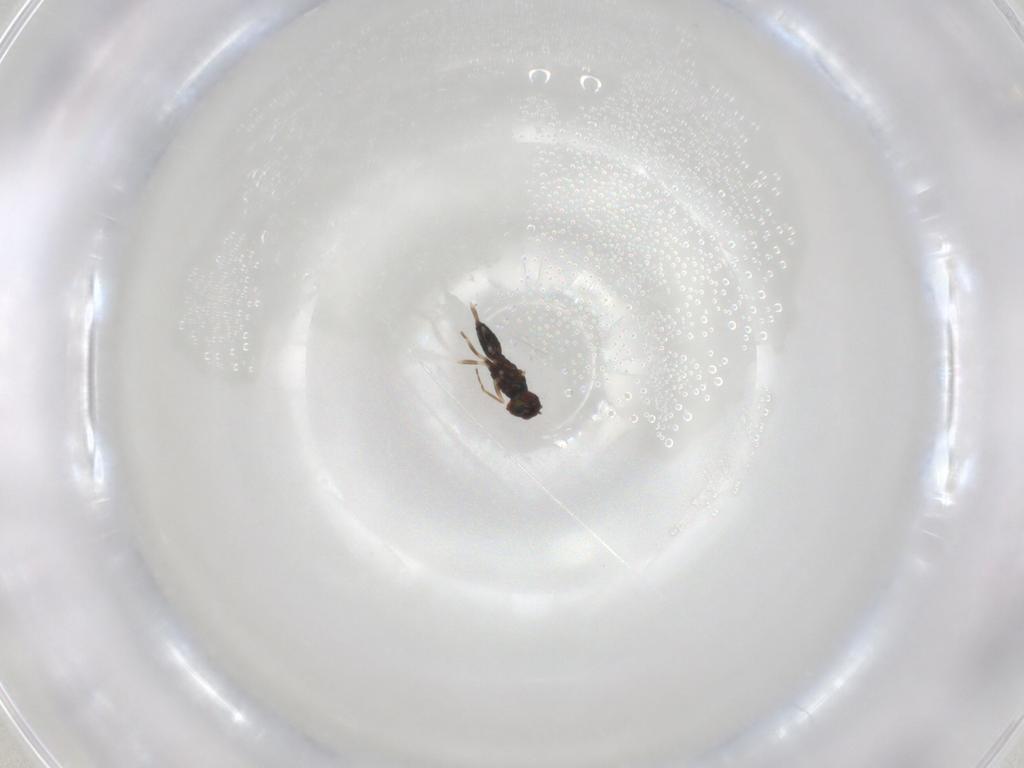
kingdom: Animalia
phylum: Arthropoda
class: Insecta
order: Hymenoptera
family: Eulophidae
